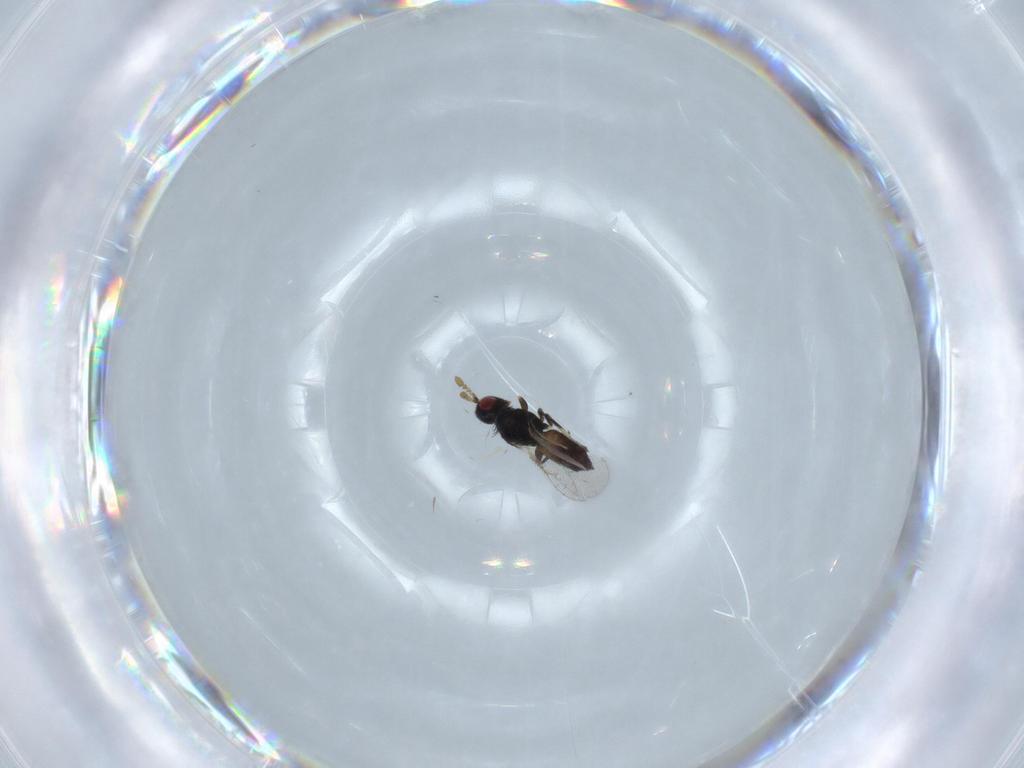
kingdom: Animalia
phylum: Arthropoda
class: Insecta
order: Hymenoptera
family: Eulophidae
